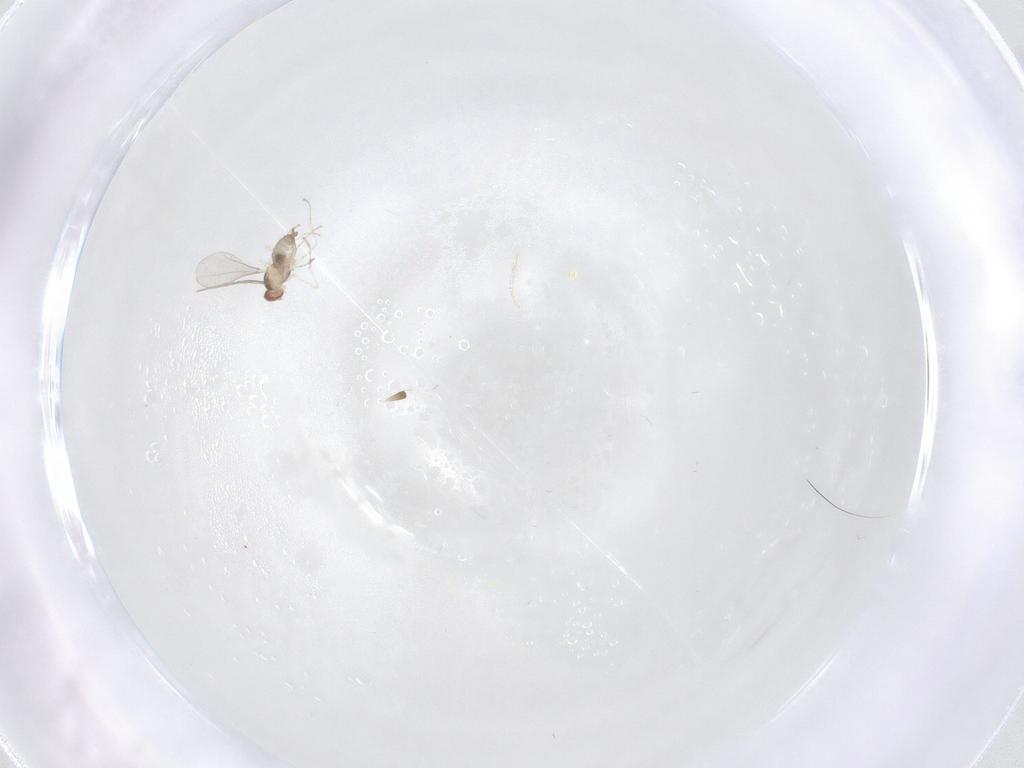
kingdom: Animalia
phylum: Arthropoda
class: Insecta
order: Diptera
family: Cecidomyiidae
